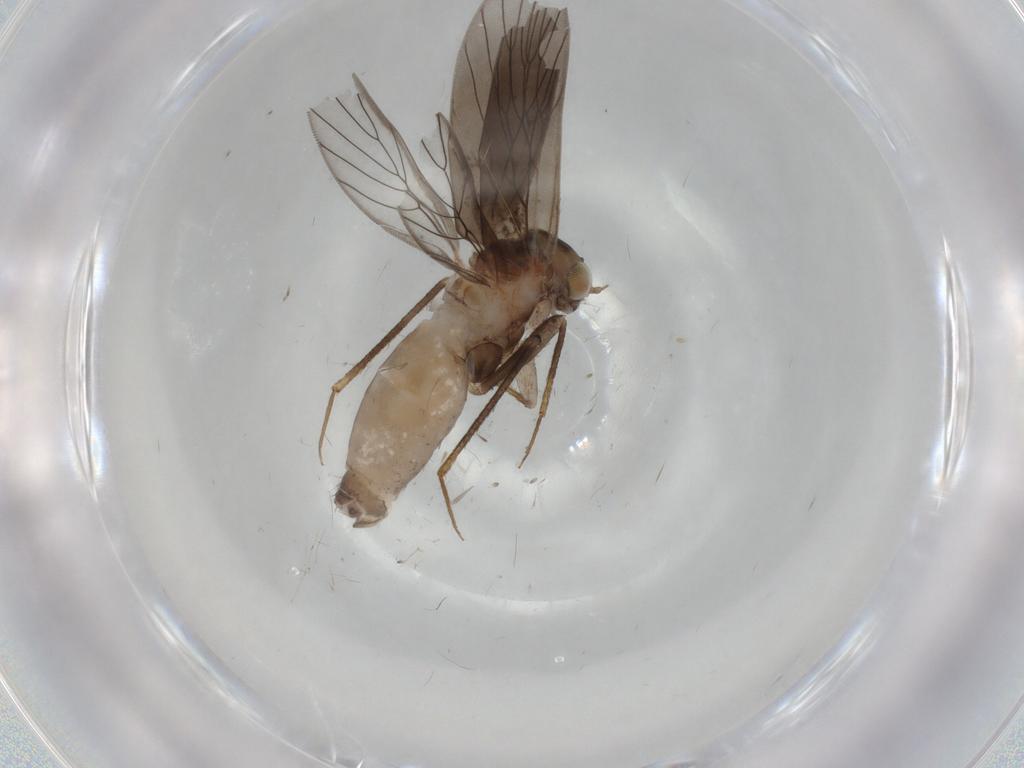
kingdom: Animalia
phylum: Arthropoda
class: Insecta
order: Psocodea
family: Lepidopsocidae
